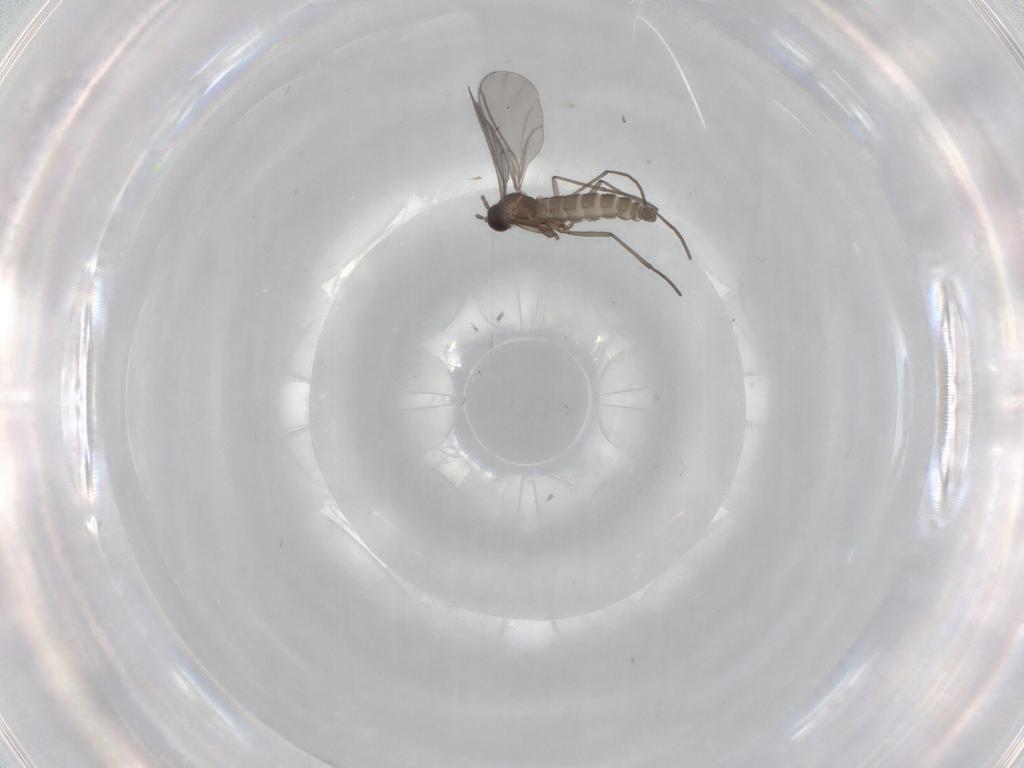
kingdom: Animalia
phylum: Arthropoda
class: Insecta
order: Diptera
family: Sciaridae
